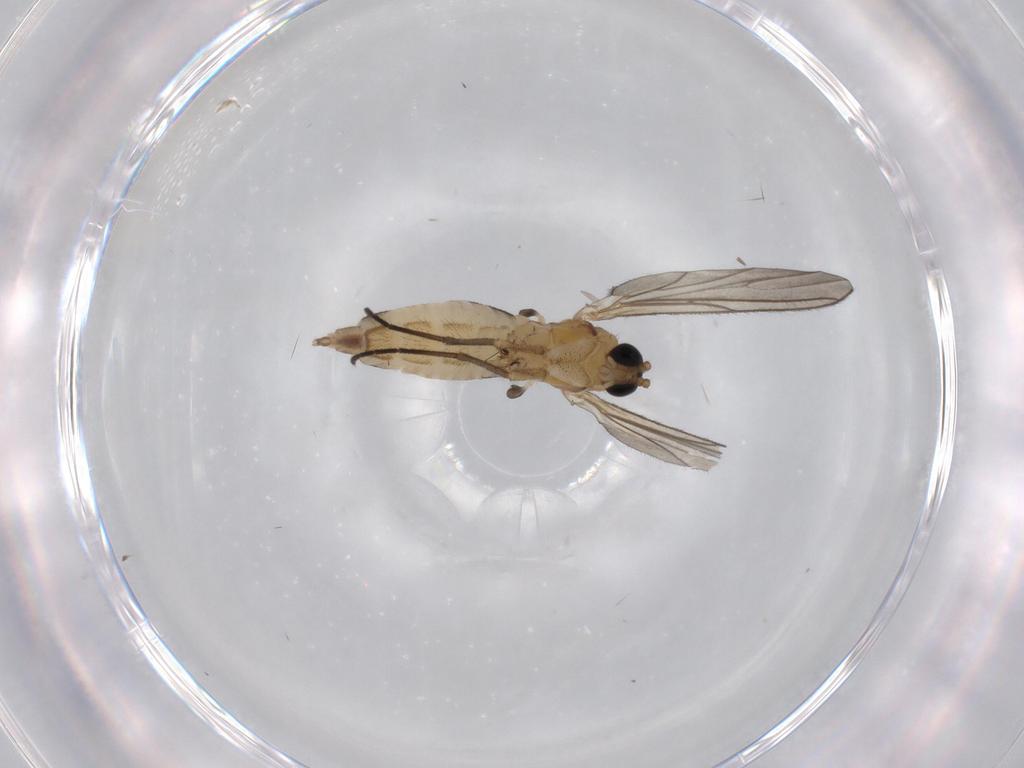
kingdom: Animalia
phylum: Arthropoda
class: Insecta
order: Diptera
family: Sciaridae
